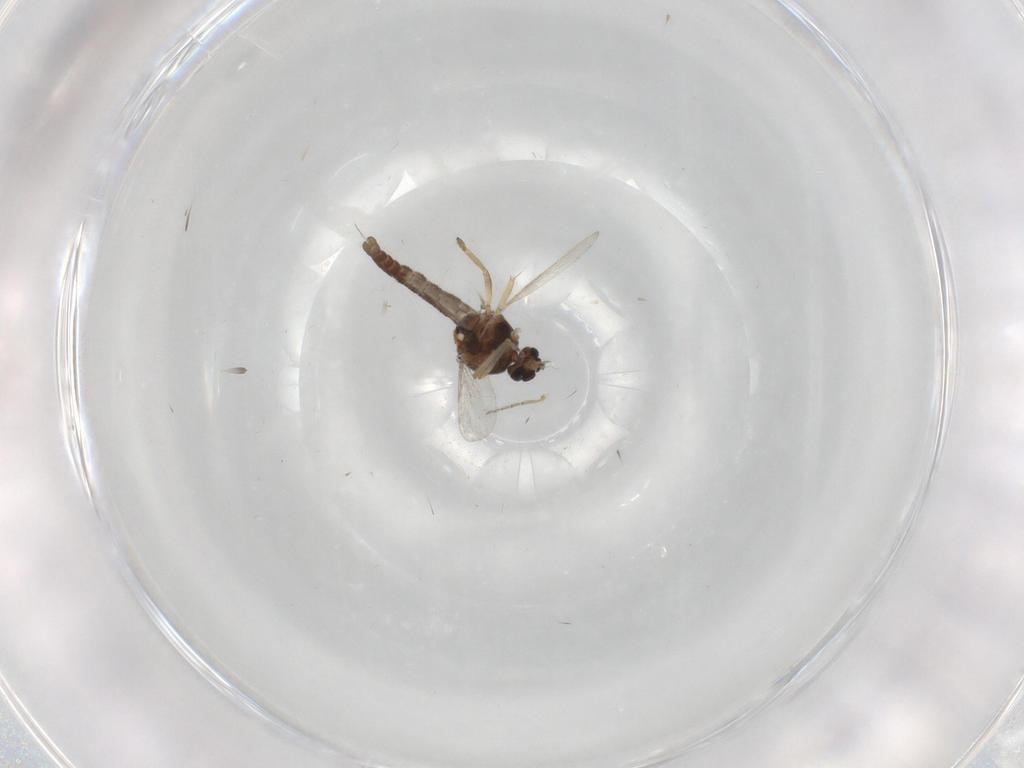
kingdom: Animalia
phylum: Arthropoda
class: Insecta
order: Diptera
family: Ceratopogonidae
